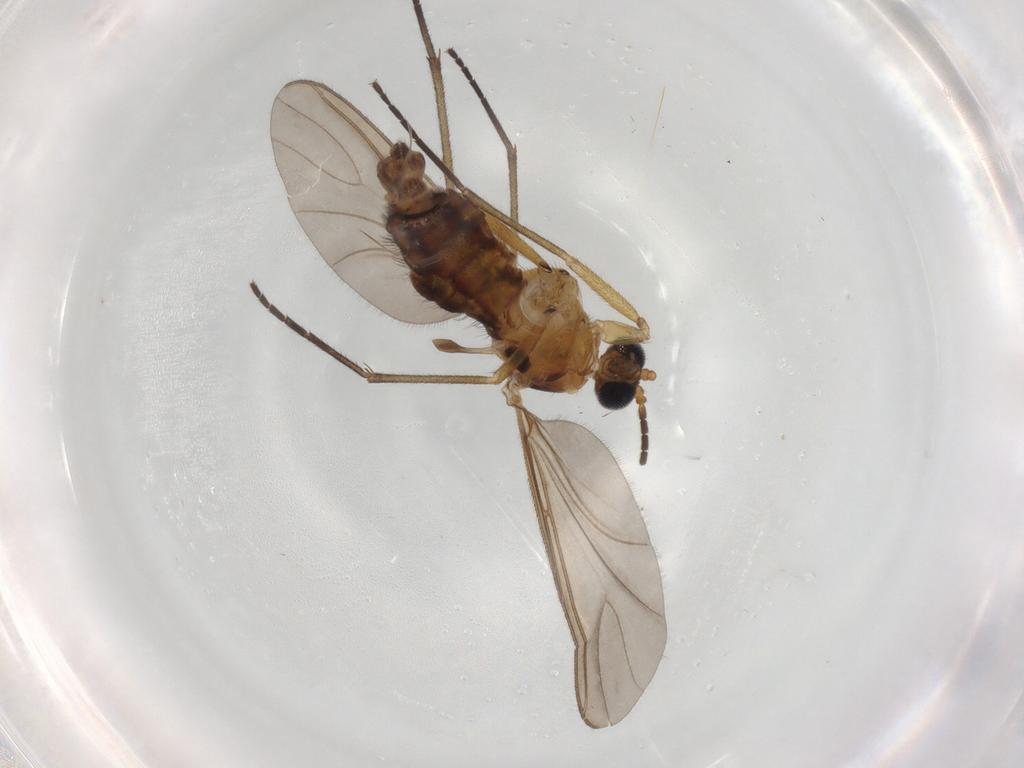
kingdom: Animalia
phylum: Arthropoda
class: Insecta
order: Diptera
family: Sciaridae
